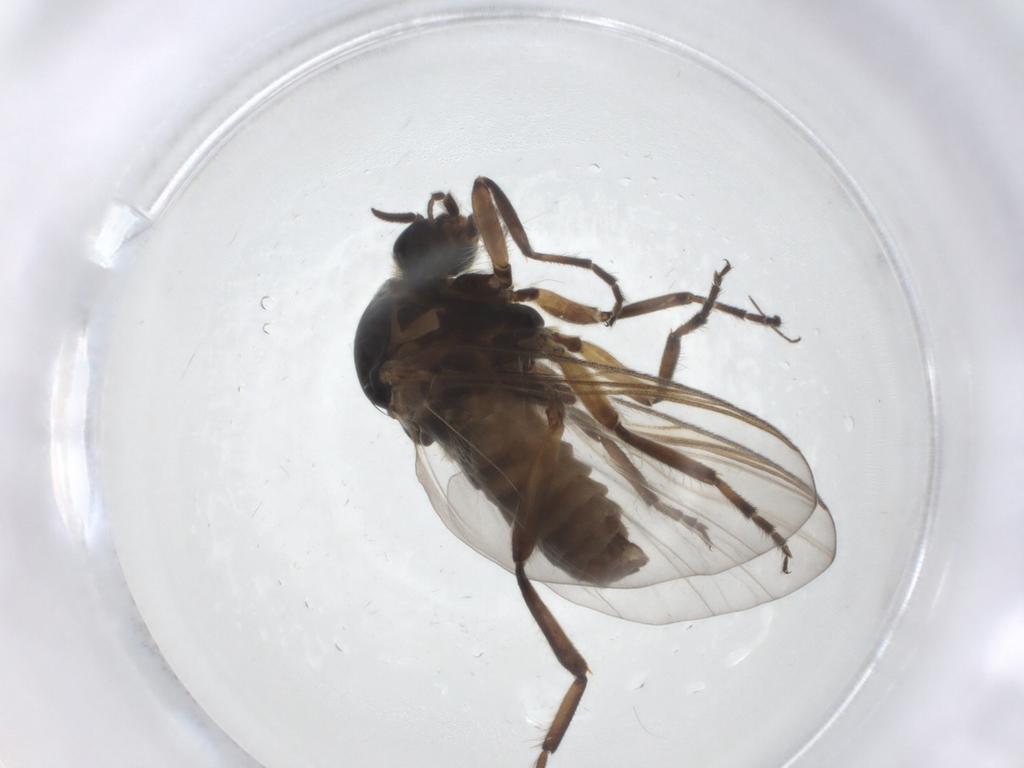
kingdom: Animalia
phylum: Arthropoda
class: Insecta
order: Diptera
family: Simuliidae
